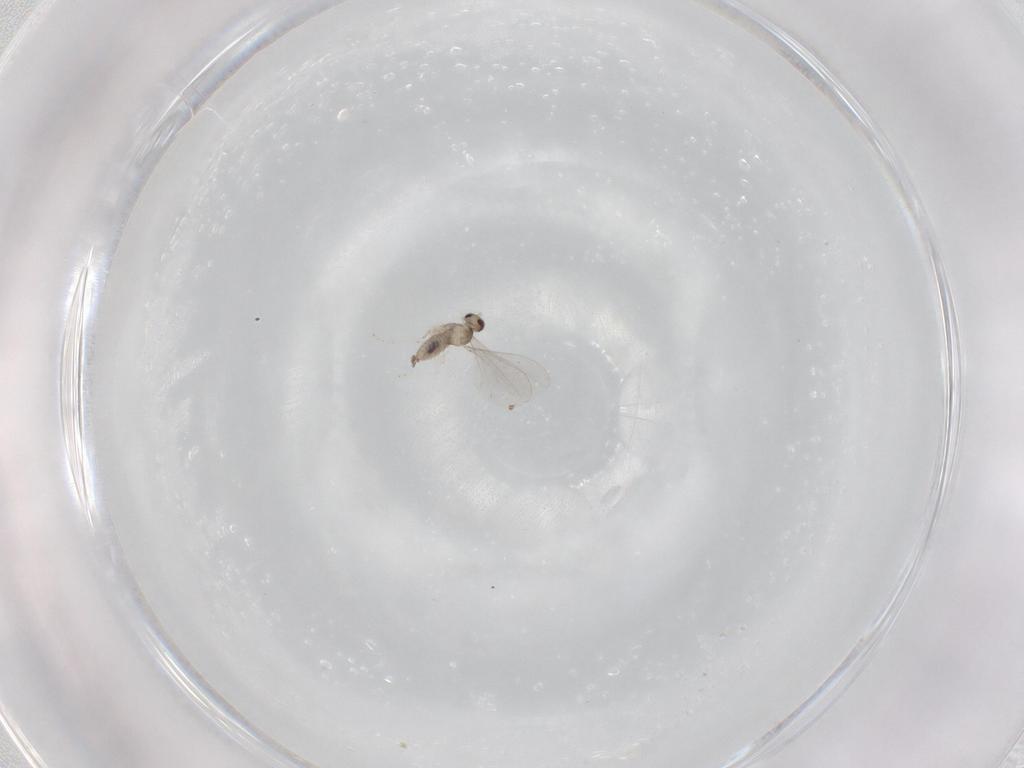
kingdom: Animalia
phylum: Arthropoda
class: Insecta
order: Diptera
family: Cecidomyiidae
